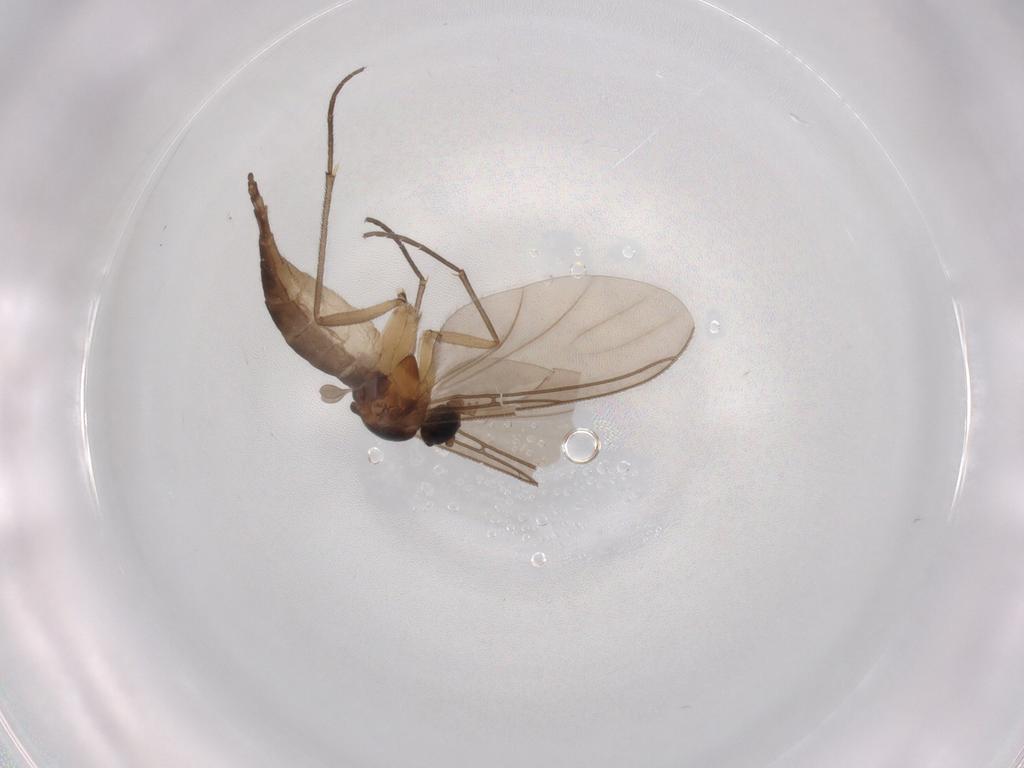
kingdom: Animalia
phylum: Arthropoda
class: Insecta
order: Diptera
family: Sciaridae
